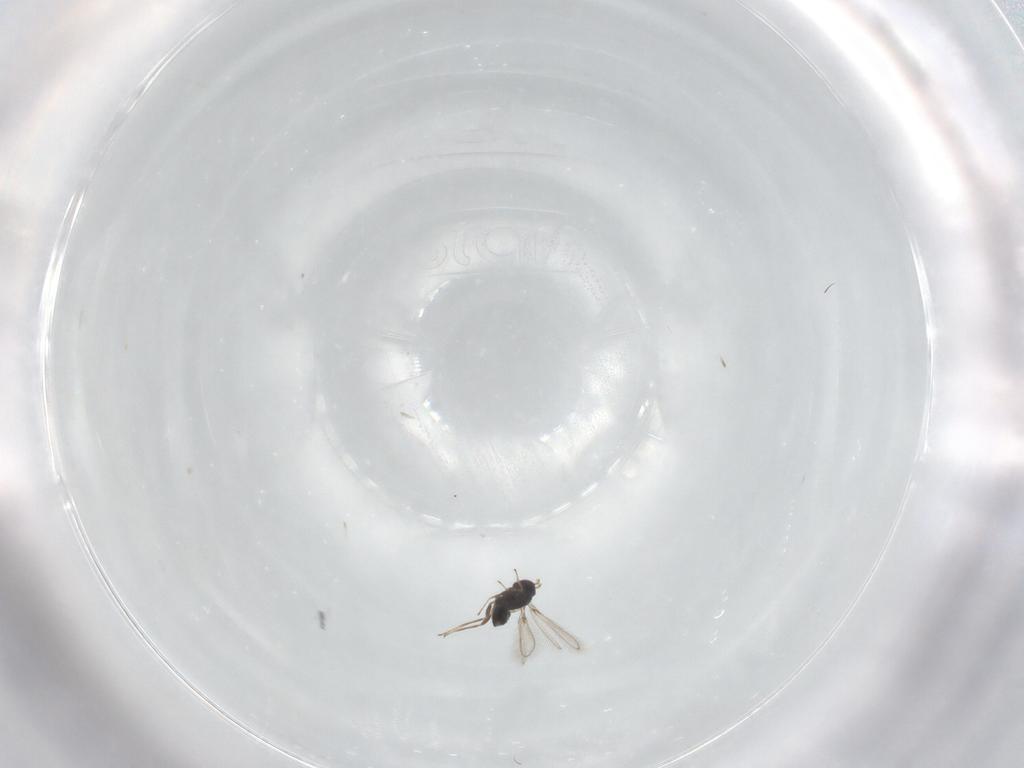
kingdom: Animalia
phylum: Arthropoda
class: Insecta
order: Hymenoptera
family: Mymaridae
